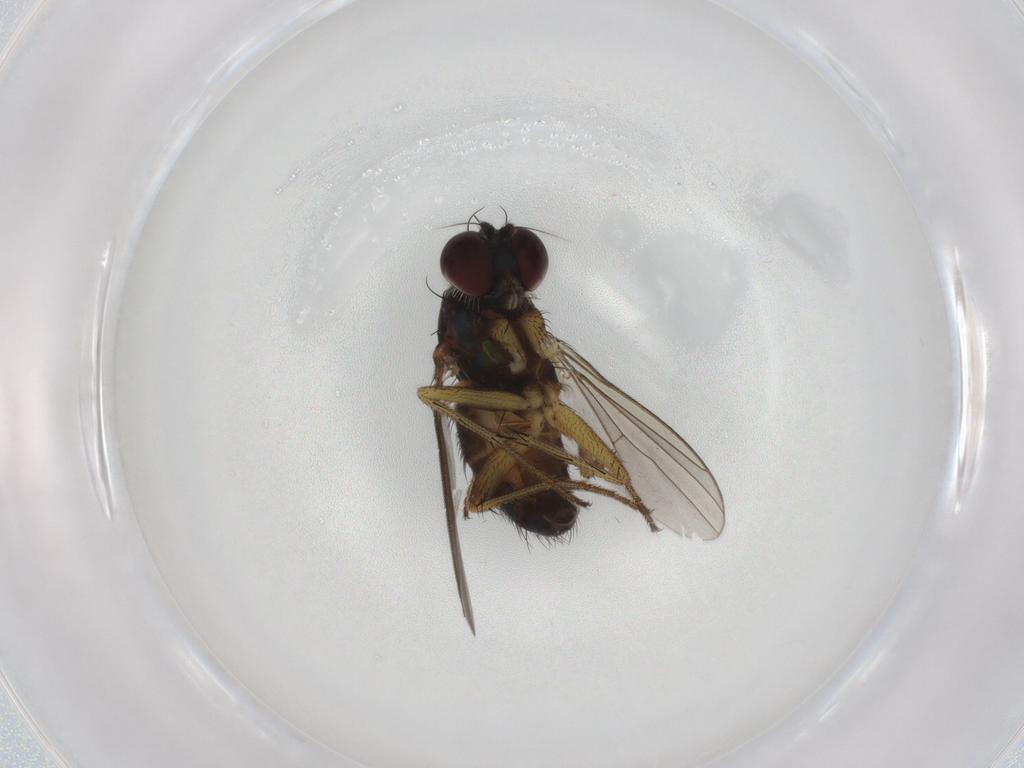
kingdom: Animalia
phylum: Arthropoda
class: Insecta
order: Diptera
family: Dolichopodidae
